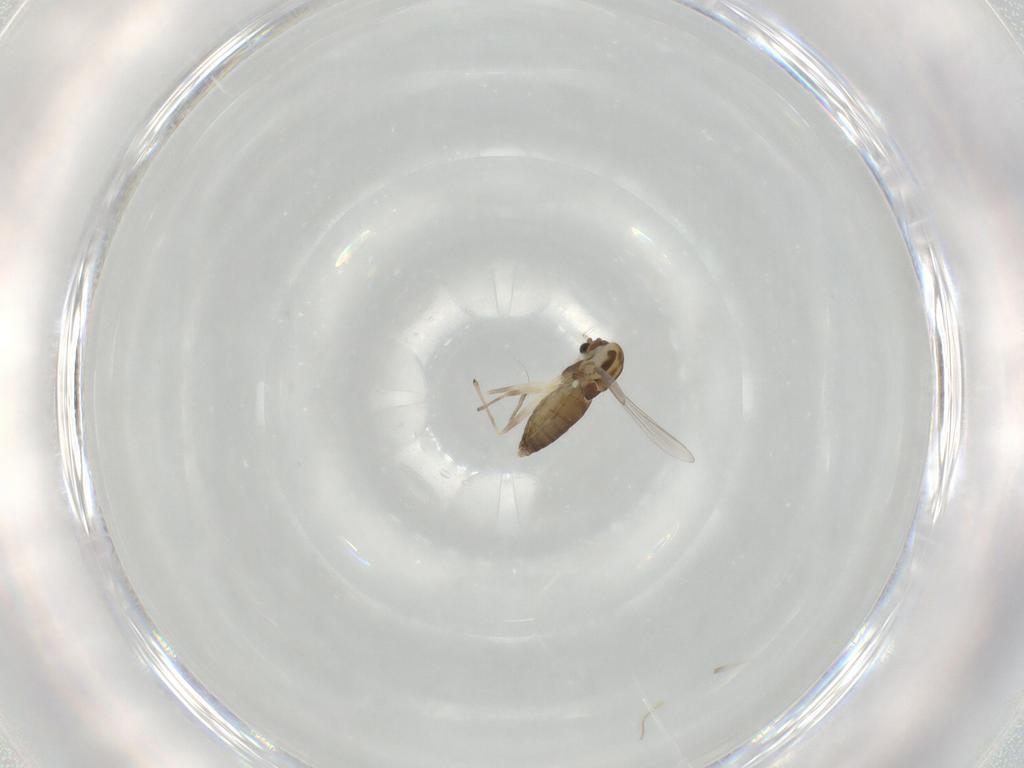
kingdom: Animalia
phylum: Arthropoda
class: Insecta
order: Diptera
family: Chironomidae
